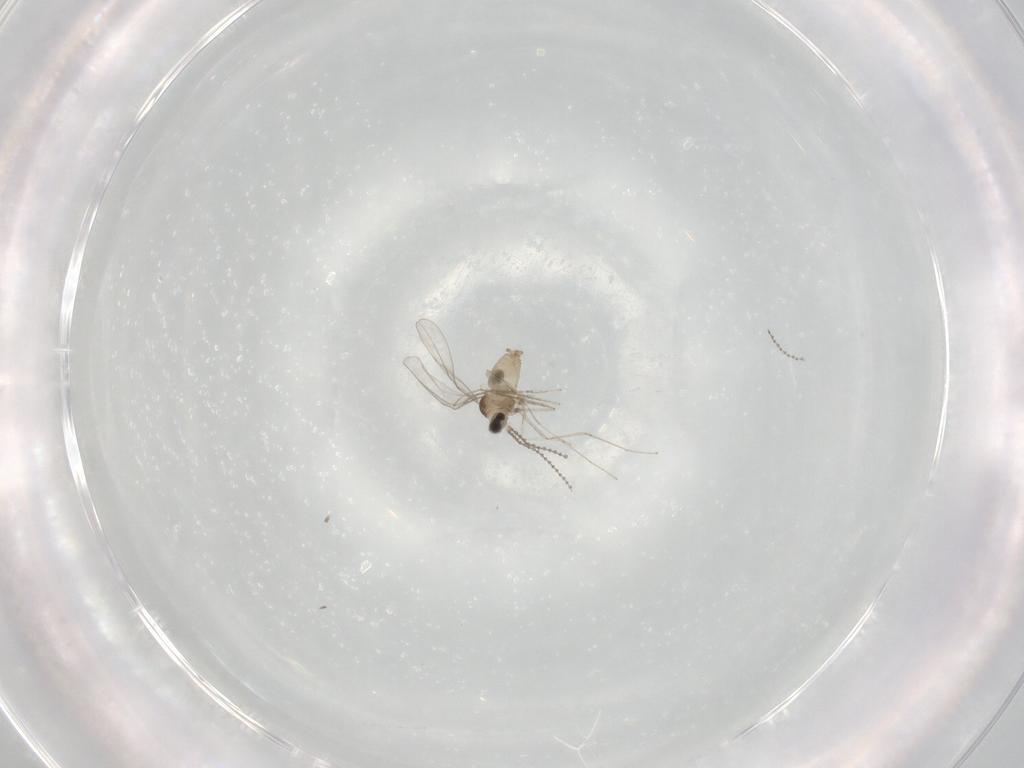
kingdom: Animalia
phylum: Arthropoda
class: Insecta
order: Diptera
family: Cecidomyiidae
